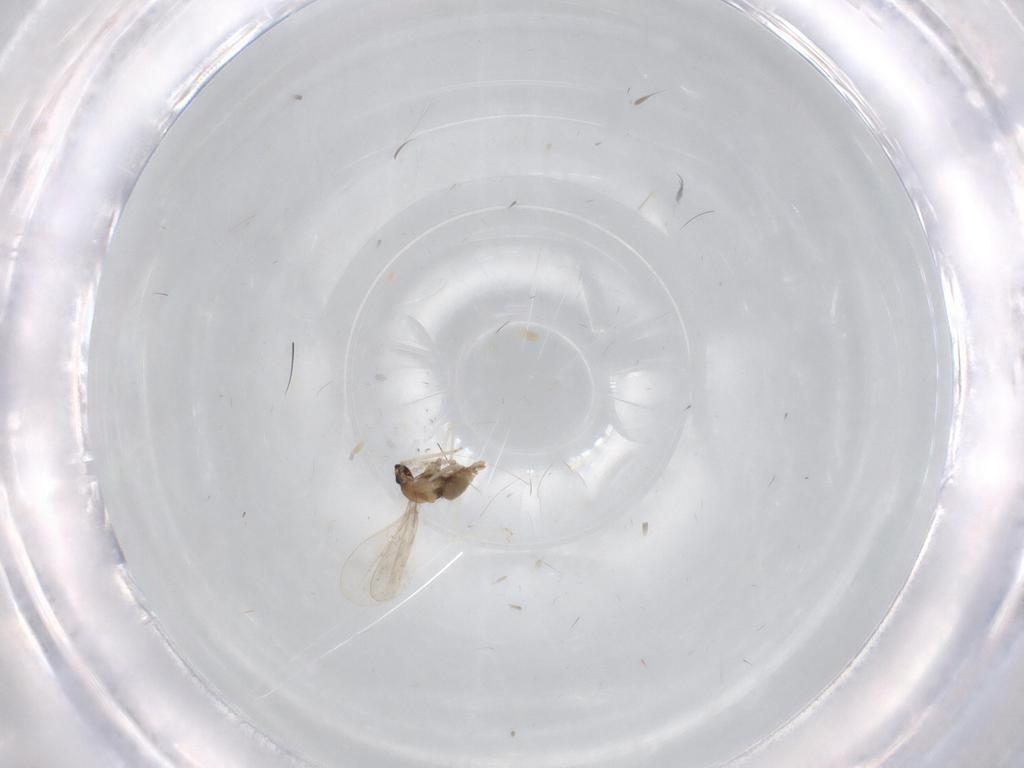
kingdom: Animalia
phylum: Arthropoda
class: Insecta
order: Diptera
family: Cecidomyiidae
